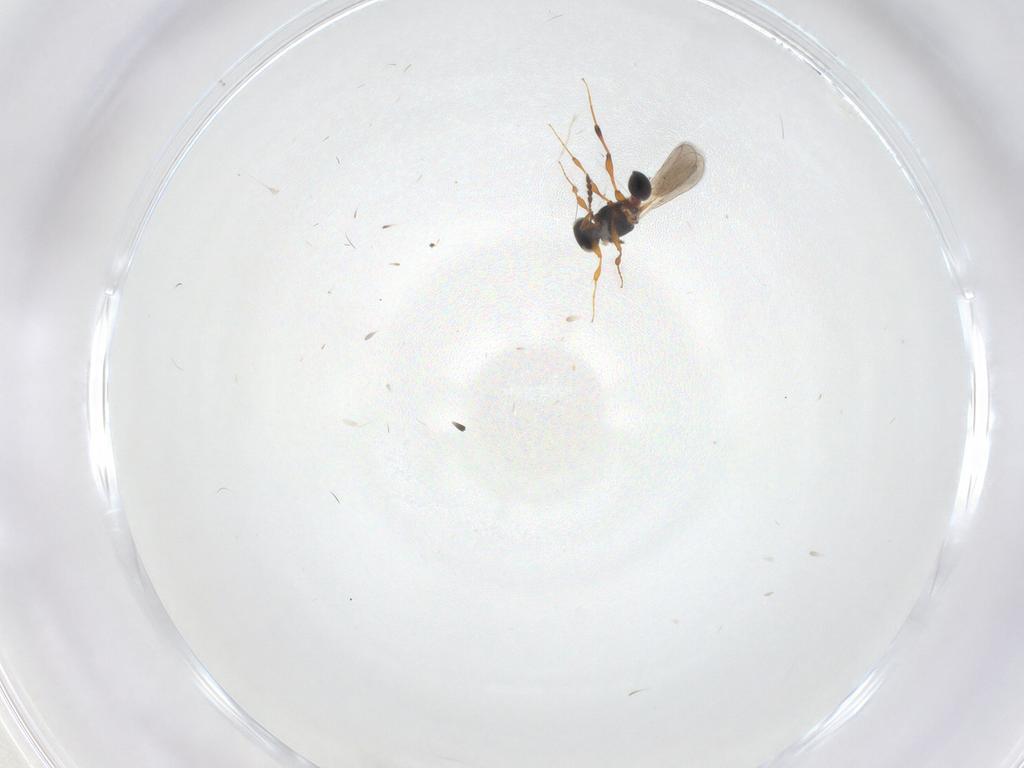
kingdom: Animalia
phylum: Arthropoda
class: Insecta
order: Hymenoptera
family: Platygastridae
